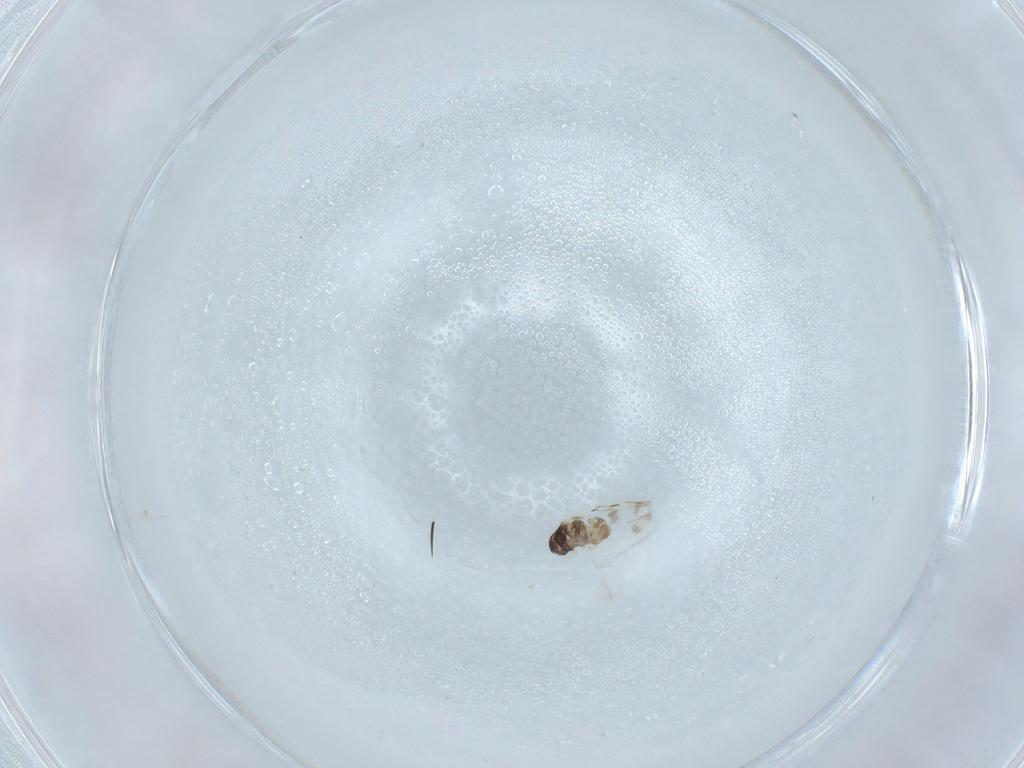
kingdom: Animalia
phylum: Arthropoda
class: Insecta
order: Hemiptera
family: Aleyrodidae
